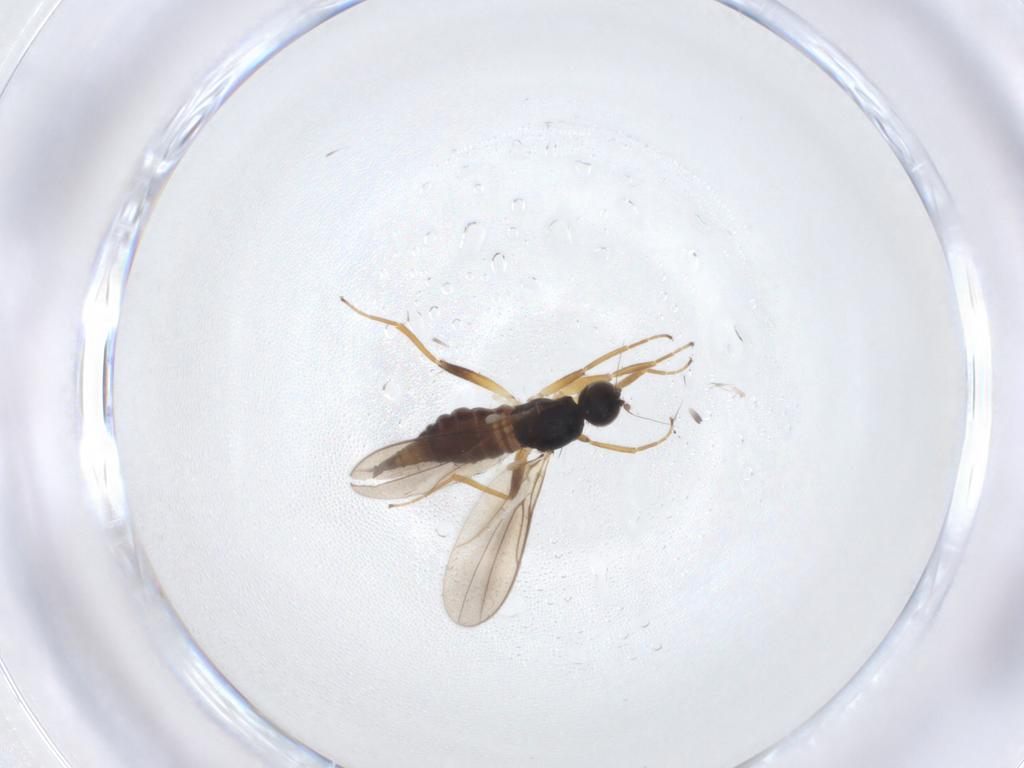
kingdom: Animalia
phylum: Arthropoda
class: Insecta
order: Diptera
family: Hybotidae
